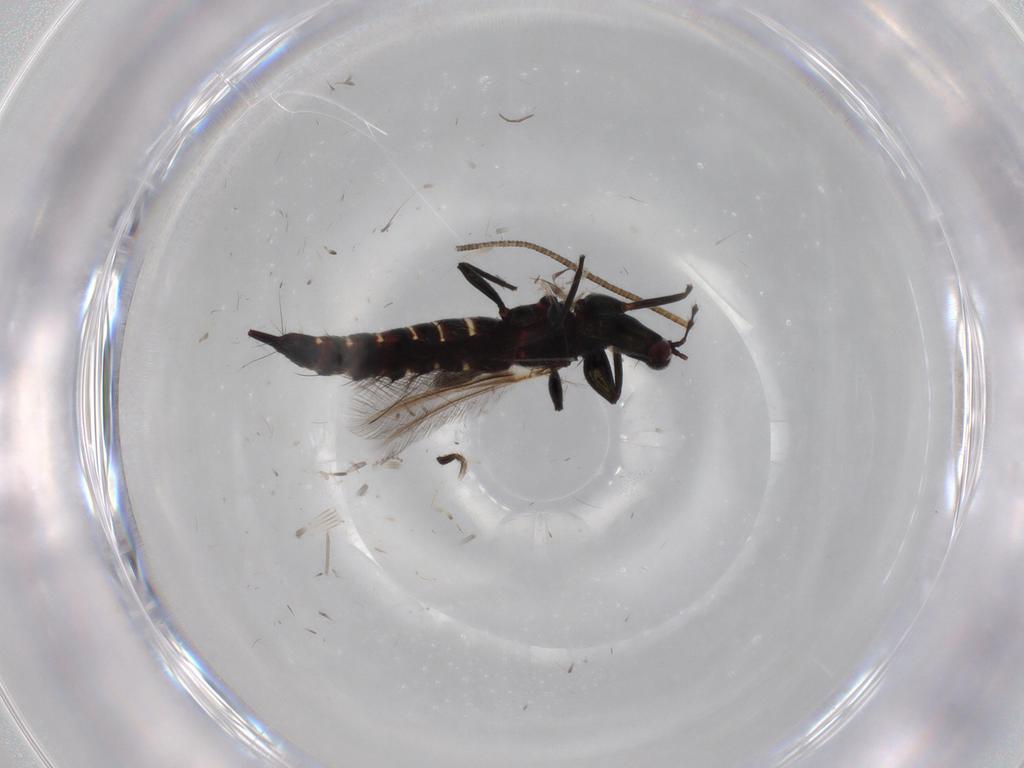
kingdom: Animalia
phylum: Arthropoda
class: Insecta
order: Thysanoptera
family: Phlaeothripidae
